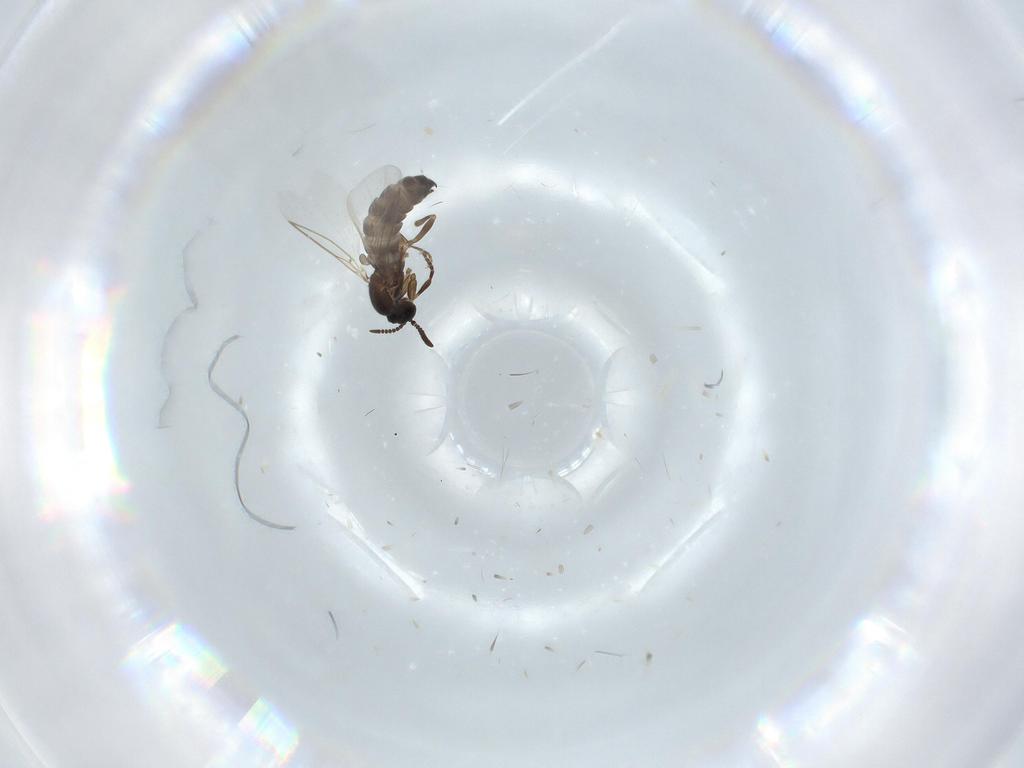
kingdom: Animalia
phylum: Arthropoda
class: Insecta
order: Diptera
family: Scatopsidae
